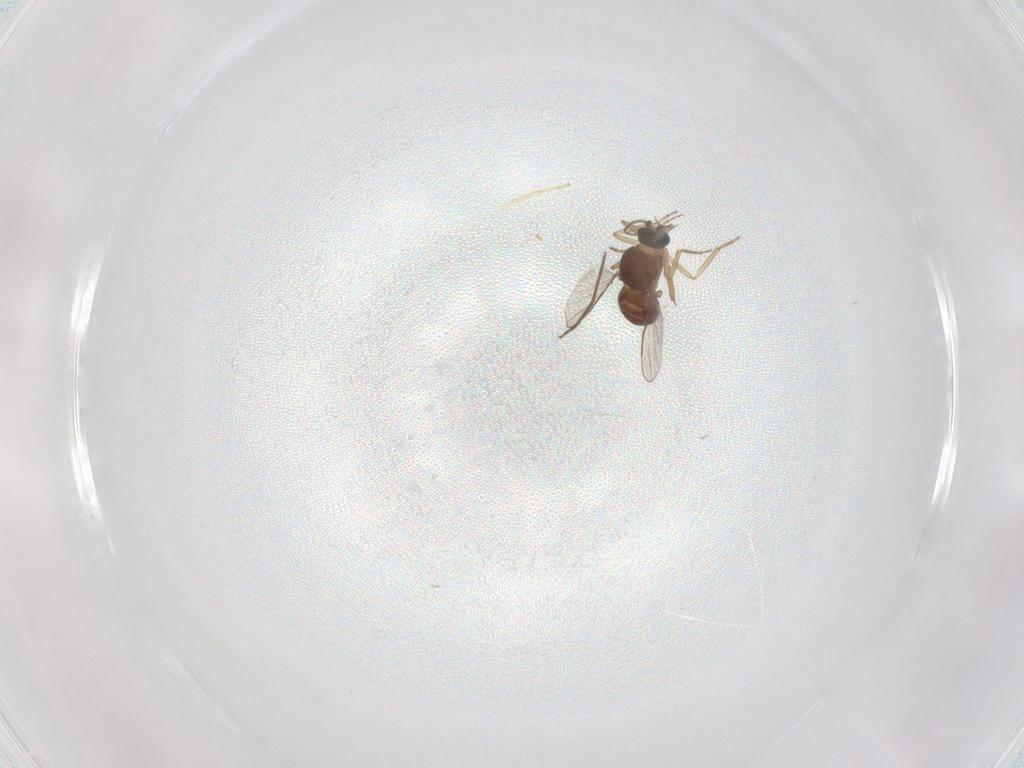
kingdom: Animalia
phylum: Arthropoda
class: Insecta
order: Diptera
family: Ceratopogonidae
